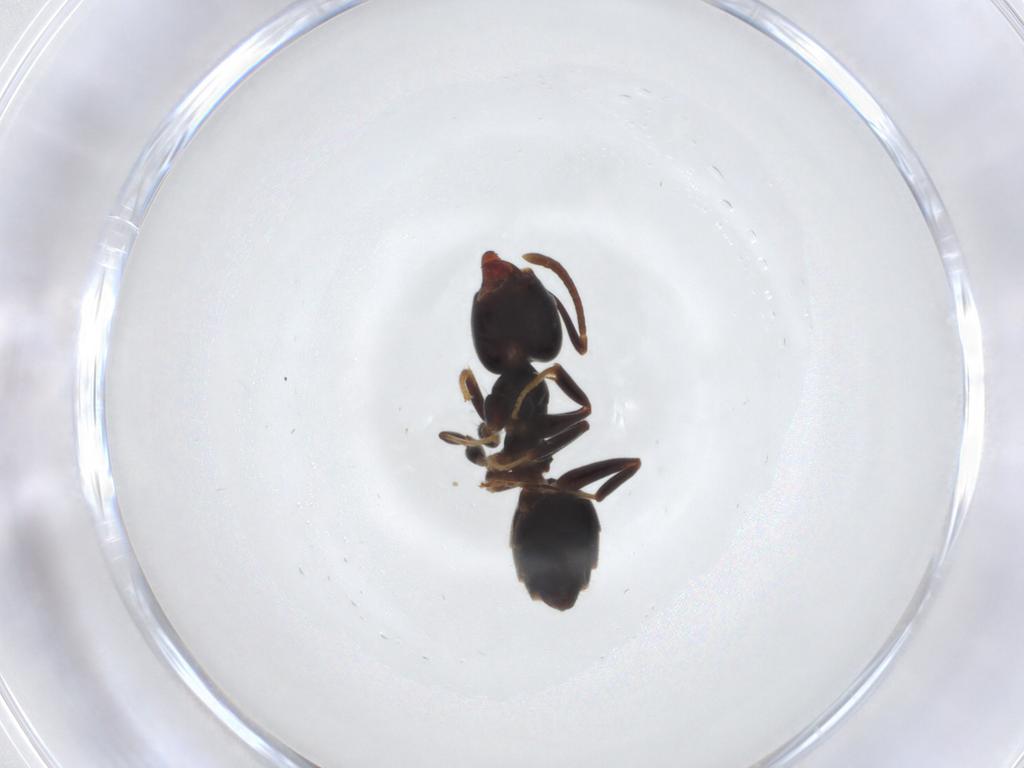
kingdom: Animalia
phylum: Arthropoda
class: Insecta
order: Hymenoptera
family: Formicidae
